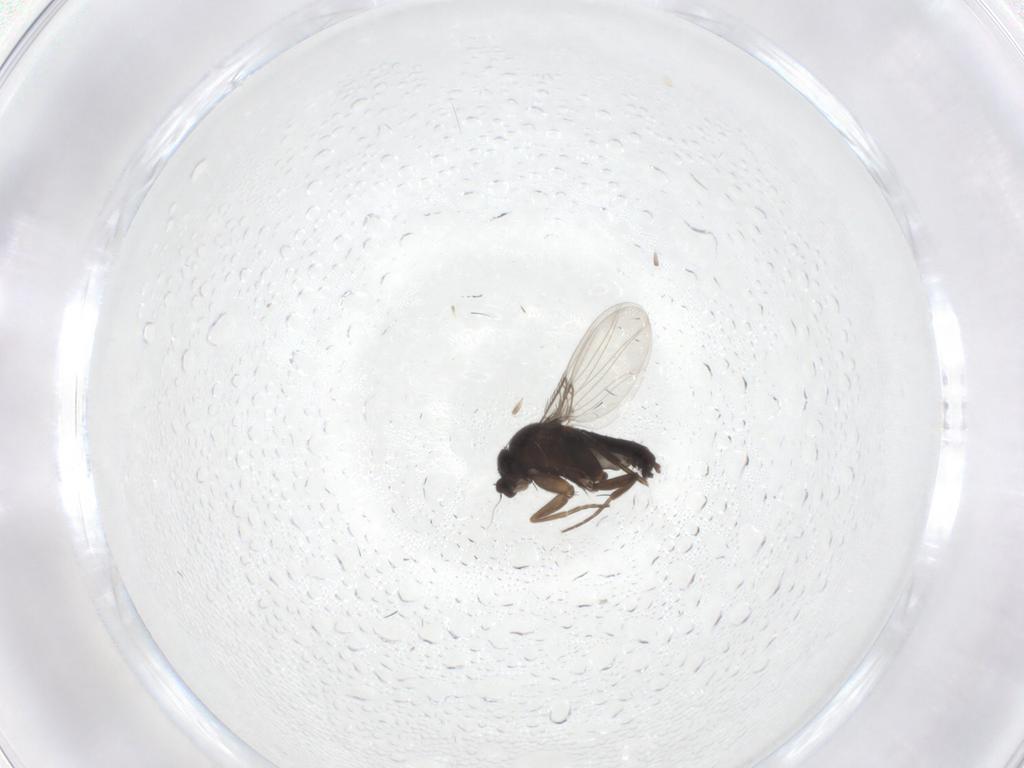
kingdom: Animalia
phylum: Arthropoda
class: Insecta
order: Diptera
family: Phoridae
